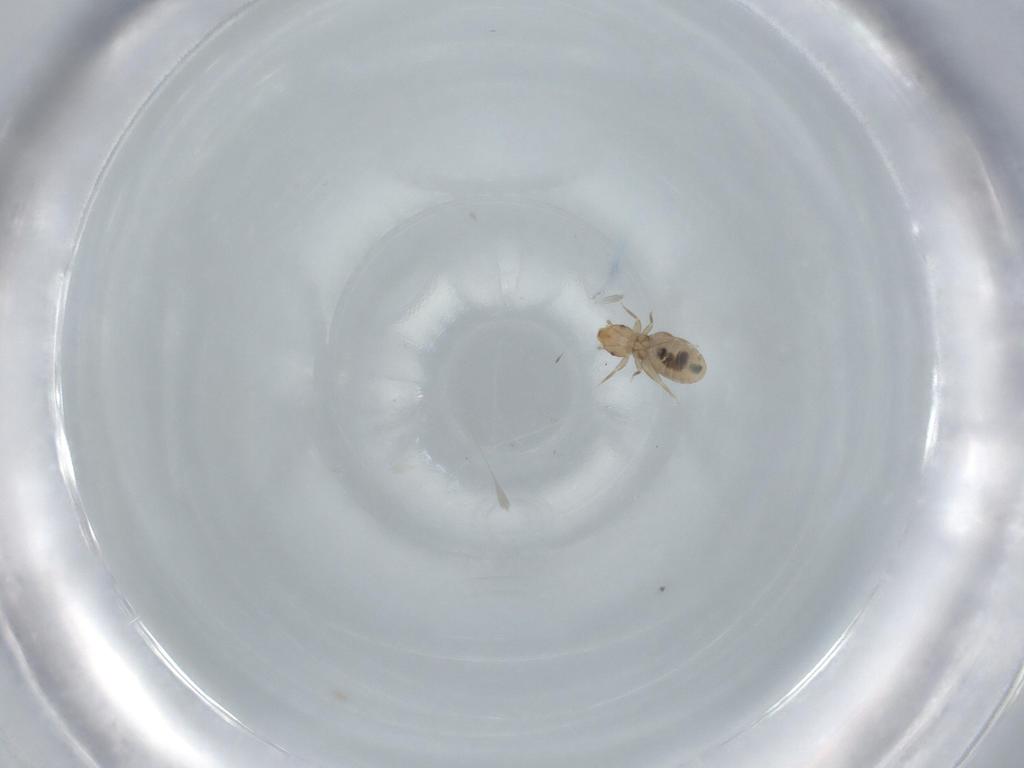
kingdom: Animalia
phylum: Arthropoda
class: Insecta
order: Psocodea
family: Liposcelididae
